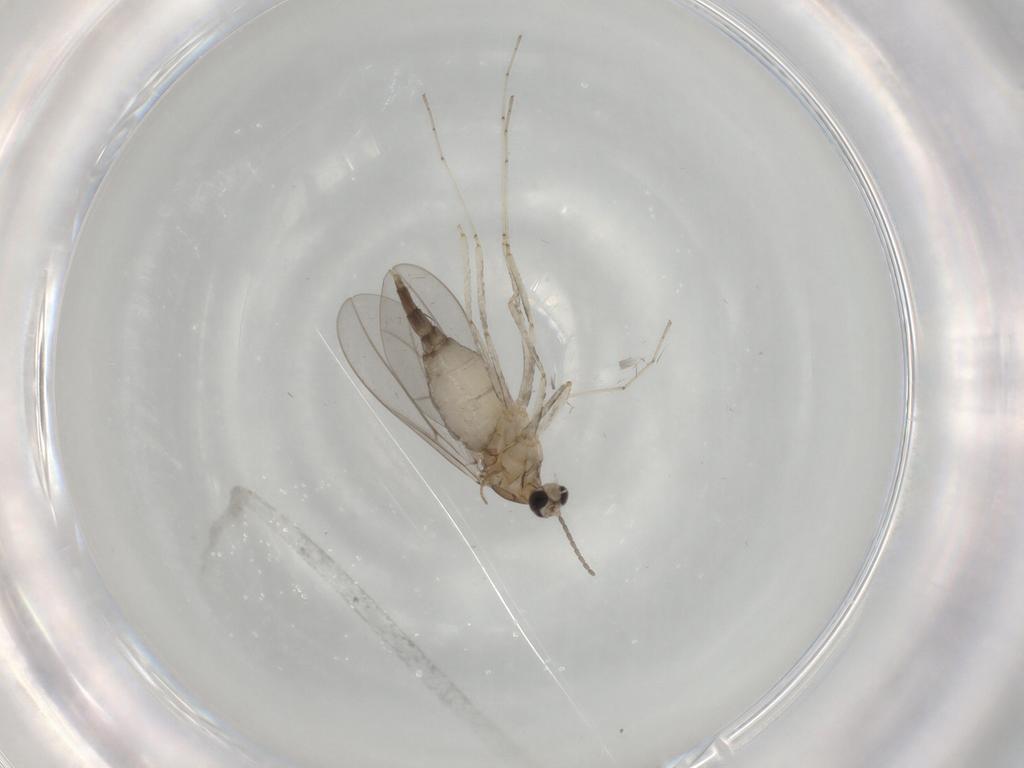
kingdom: Animalia
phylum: Arthropoda
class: Insecta
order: Diptera
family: Cecidomyiidae
